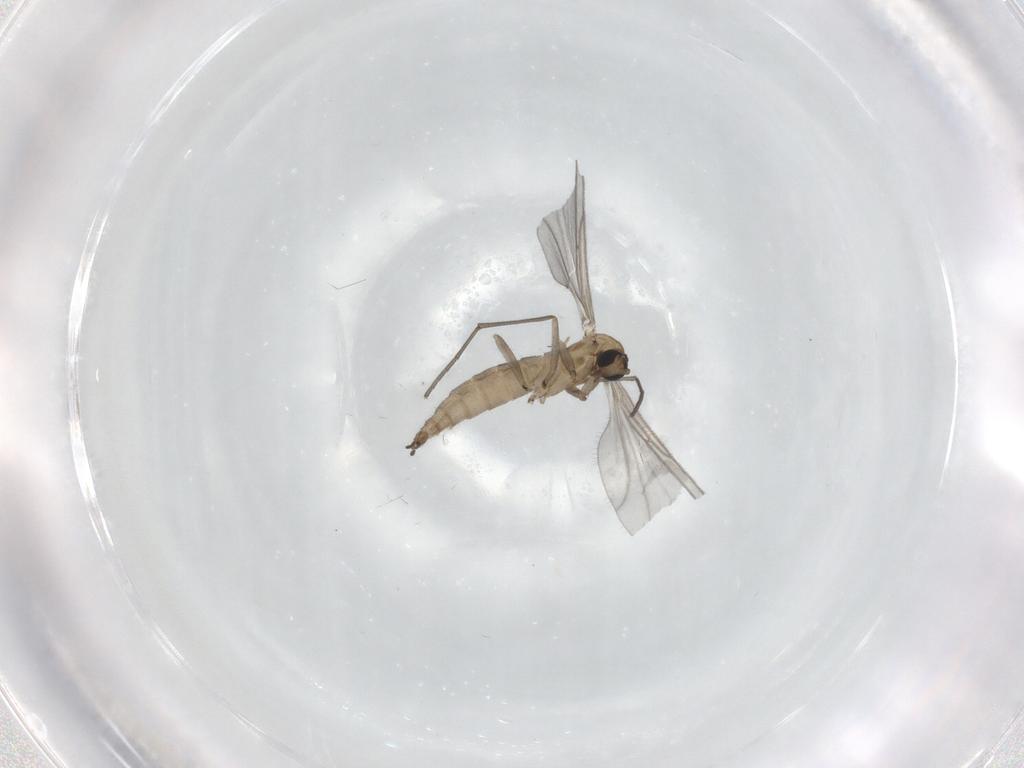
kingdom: Animalia
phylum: Arthropoda
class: Insecta
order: Diptera
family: Sciaridae
